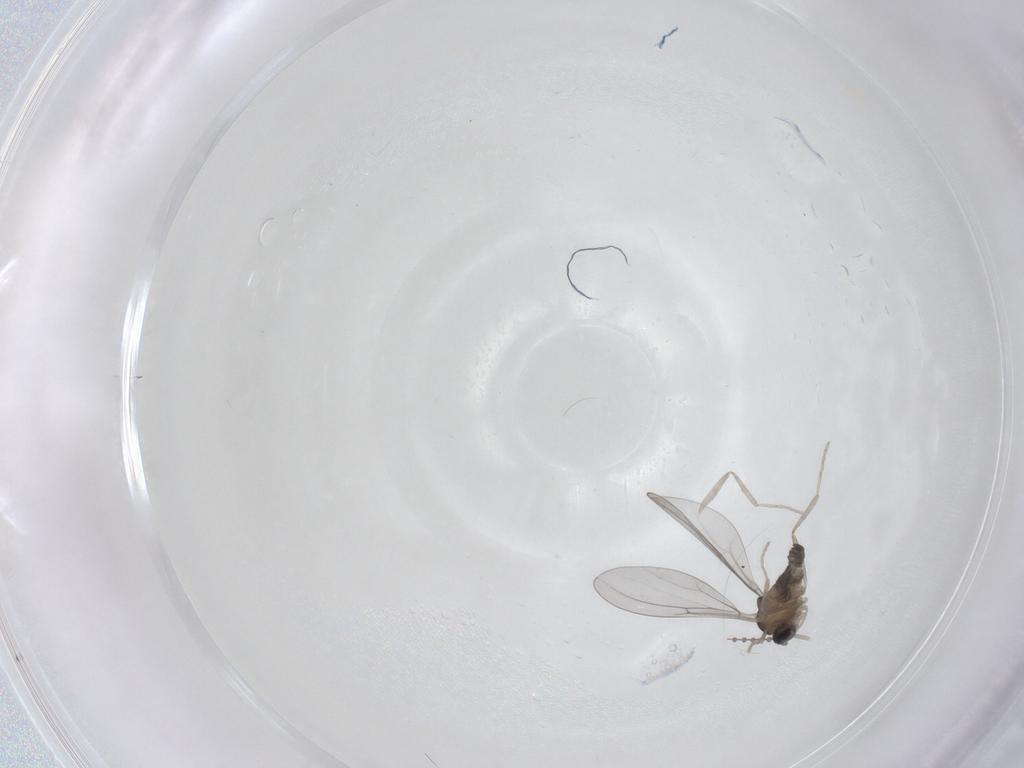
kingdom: Animalia
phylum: Arthropoda
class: Insecta
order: Diptera
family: Cecidomyiidae
